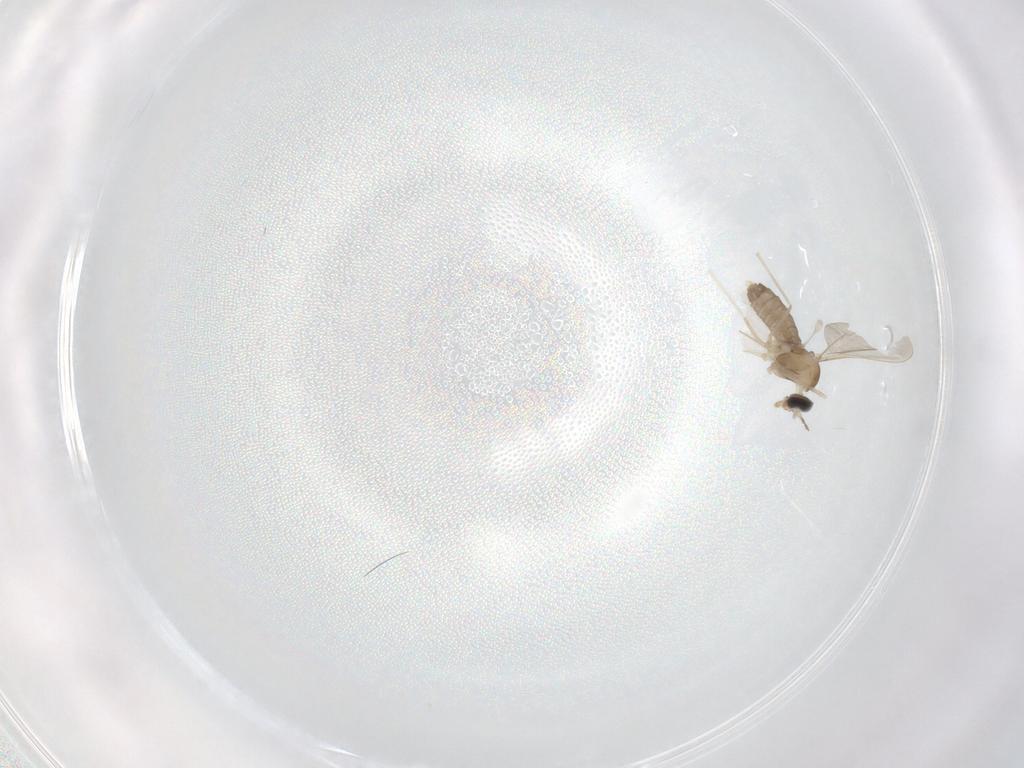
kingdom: Animalia
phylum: Arthropoda
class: Insecta
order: Diptera
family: Cecidomyiidae
